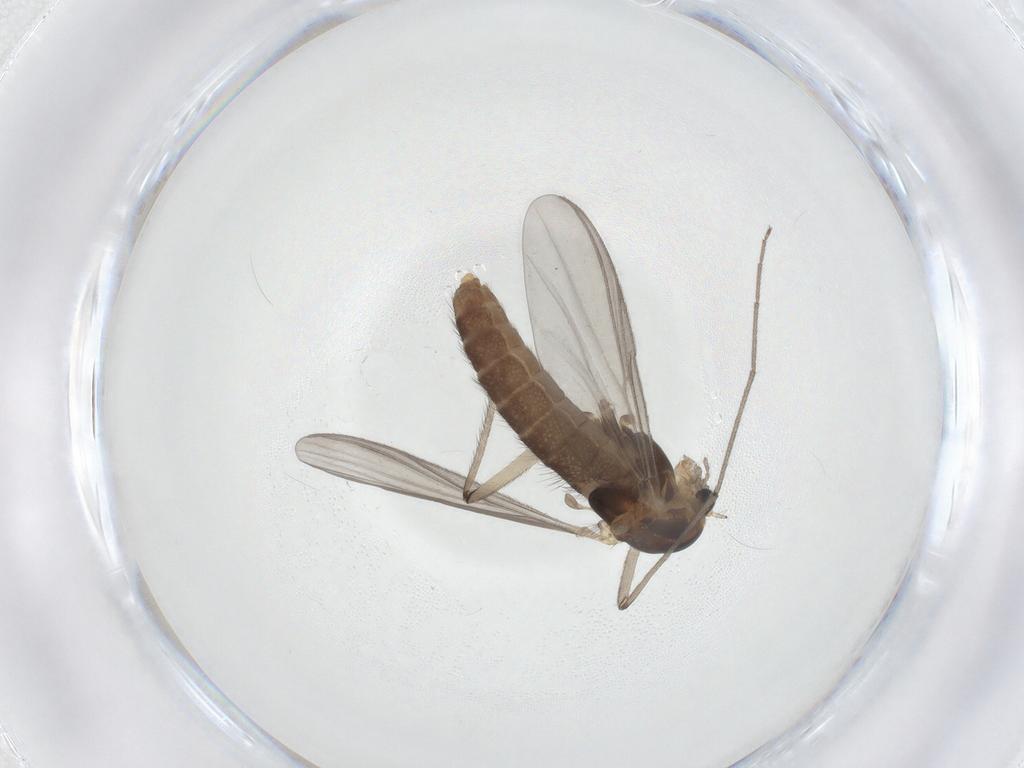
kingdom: Animalia
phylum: Arthropoda
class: Insecta
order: Diptera
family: Chironomidae
